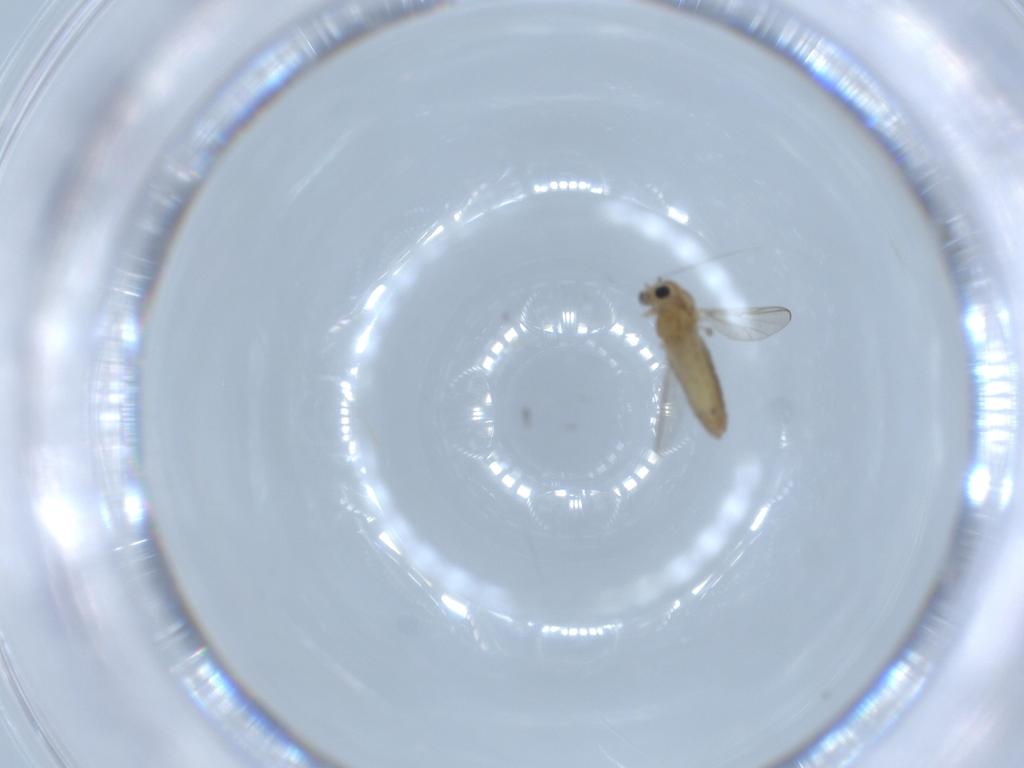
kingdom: Animalia
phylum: Arthropoda
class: Insecta
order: Diptera
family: Chironomidae
